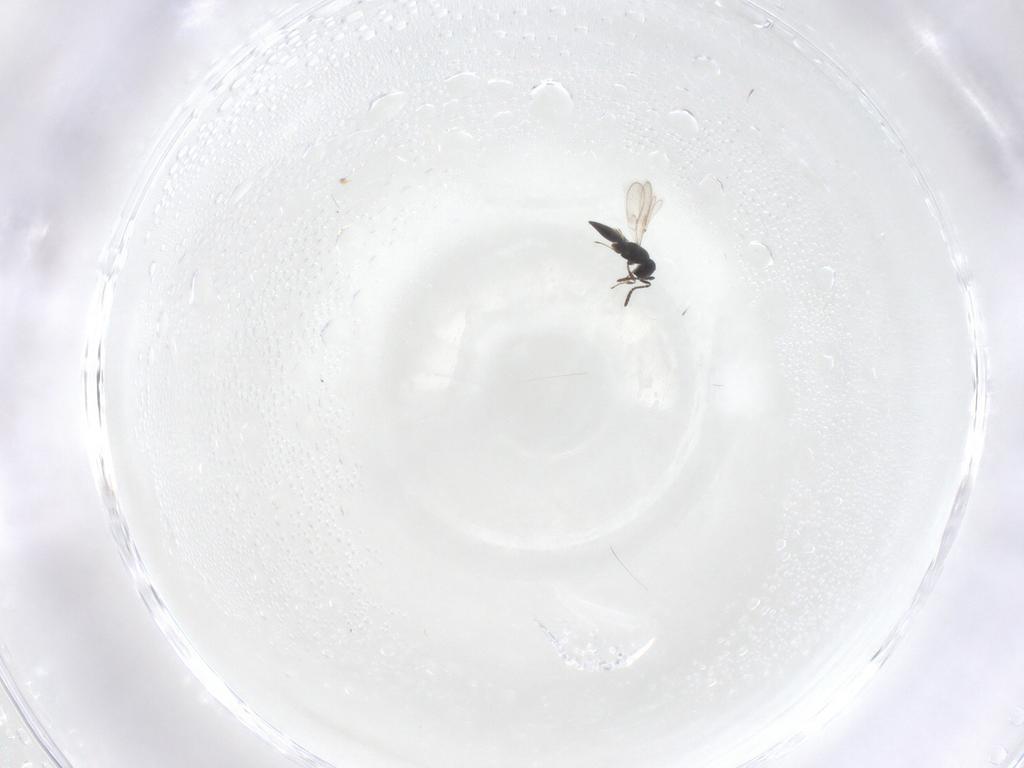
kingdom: Animalia
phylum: Arthropoda
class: Insecta
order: Hymenoptera
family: Scelionidae
